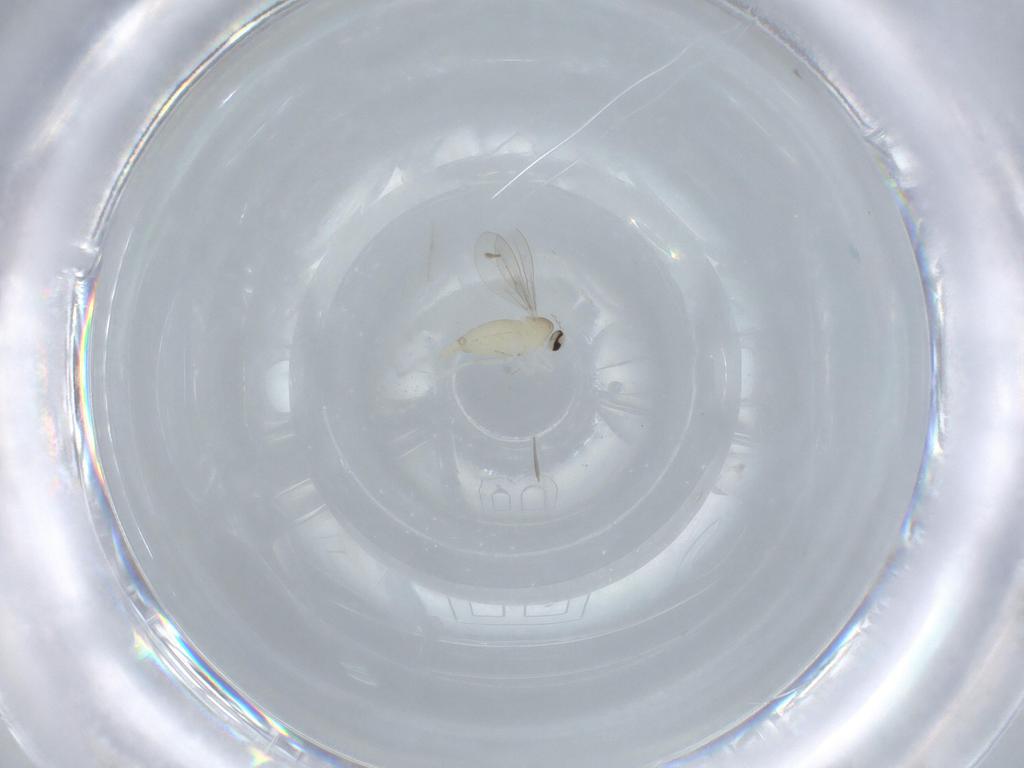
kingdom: Animalia
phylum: Arthropoda
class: Insecta
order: Diptera
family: Cecidomyiidae
